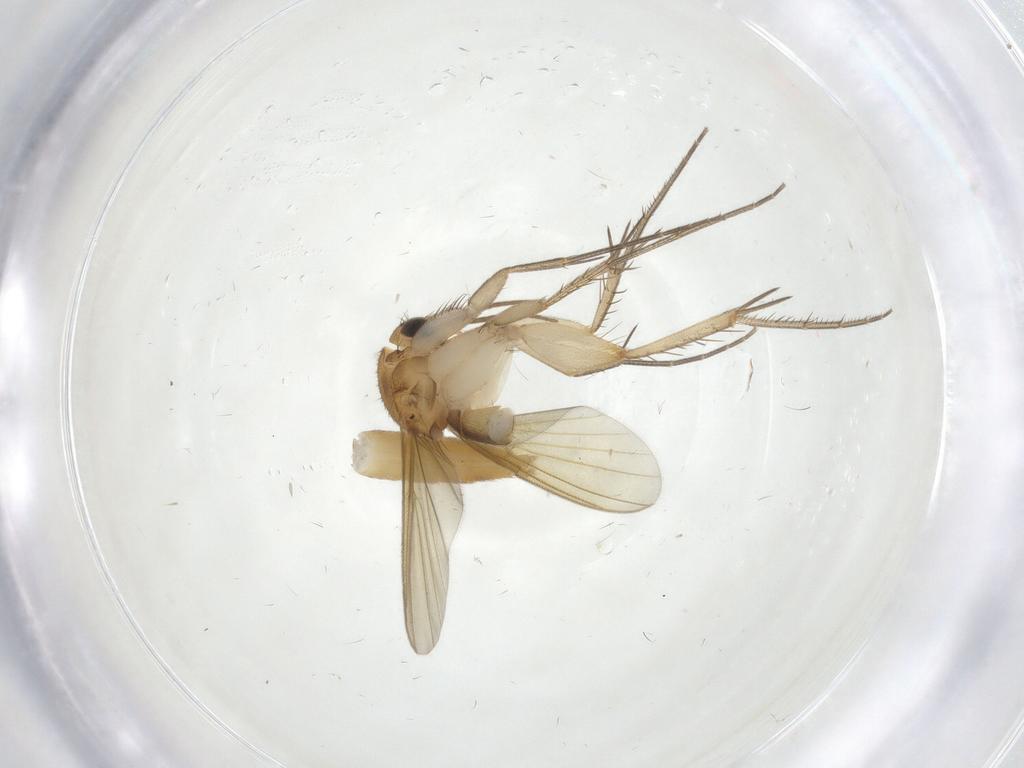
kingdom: Animalia
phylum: Arthropoda
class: Insecta
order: Diptera
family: Mycetophilidae
